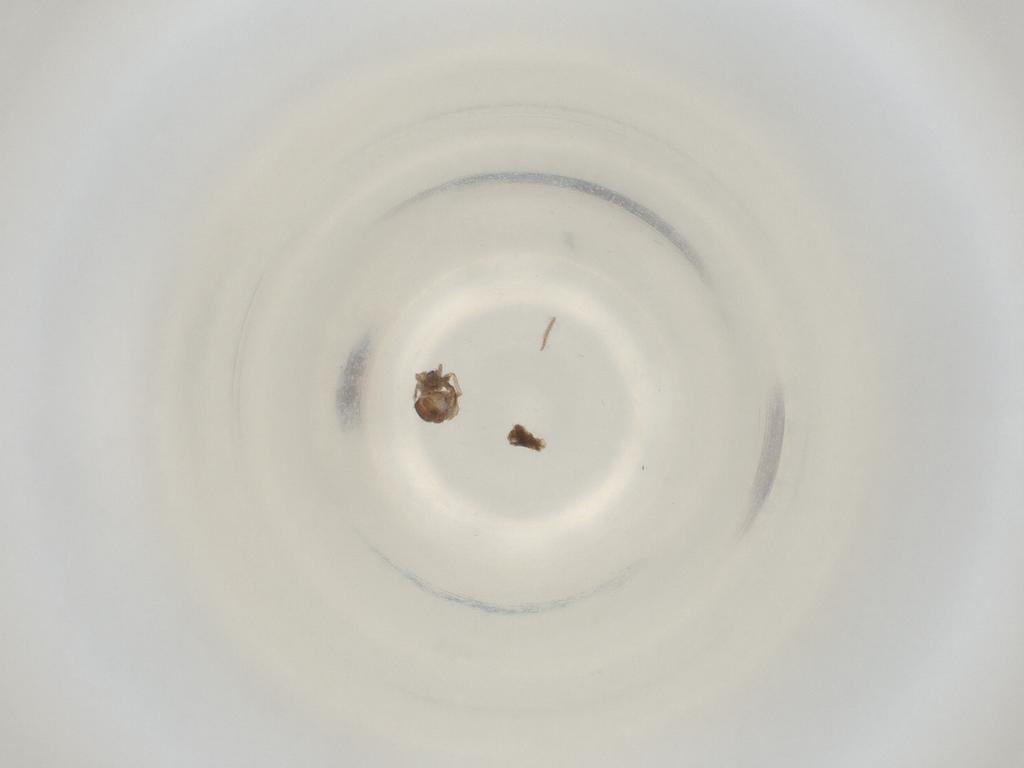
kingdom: Animalia
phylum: Arthropoda
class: Insecta
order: Diptera
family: Cecidomyiidae
